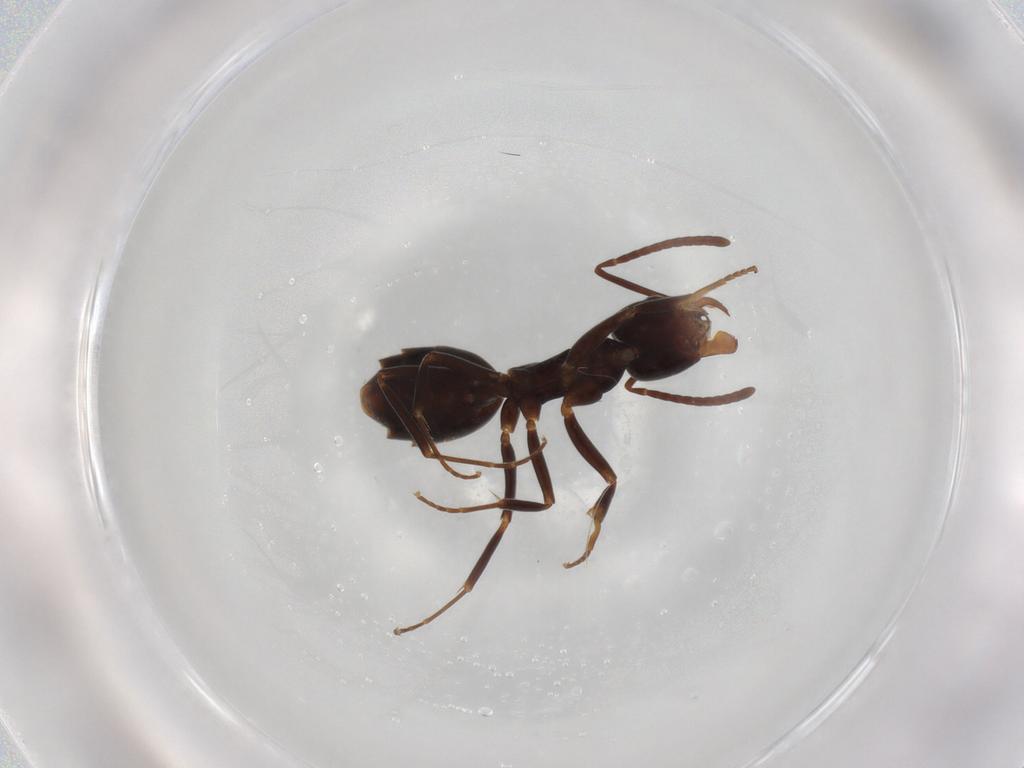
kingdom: Animalia
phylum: Arthropoda
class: Insecta
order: Hymenoptera
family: Formicidae
